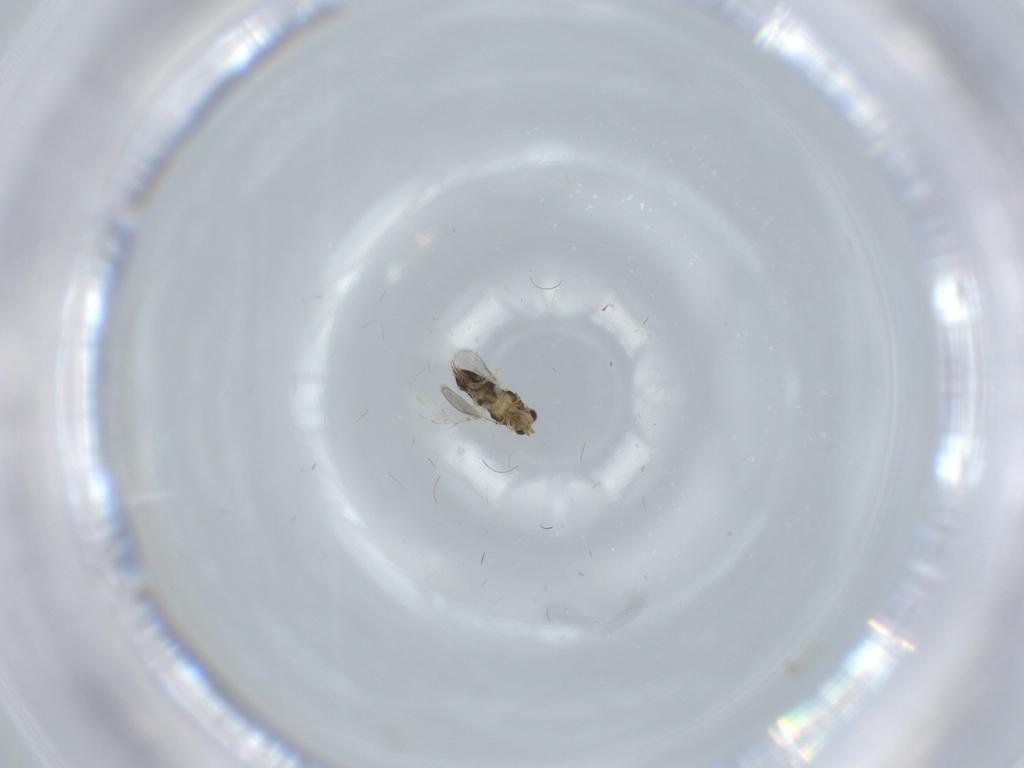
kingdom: Animalia
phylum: Arthropoda
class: Insecta
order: Hymenoptera
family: Aphelinidae
